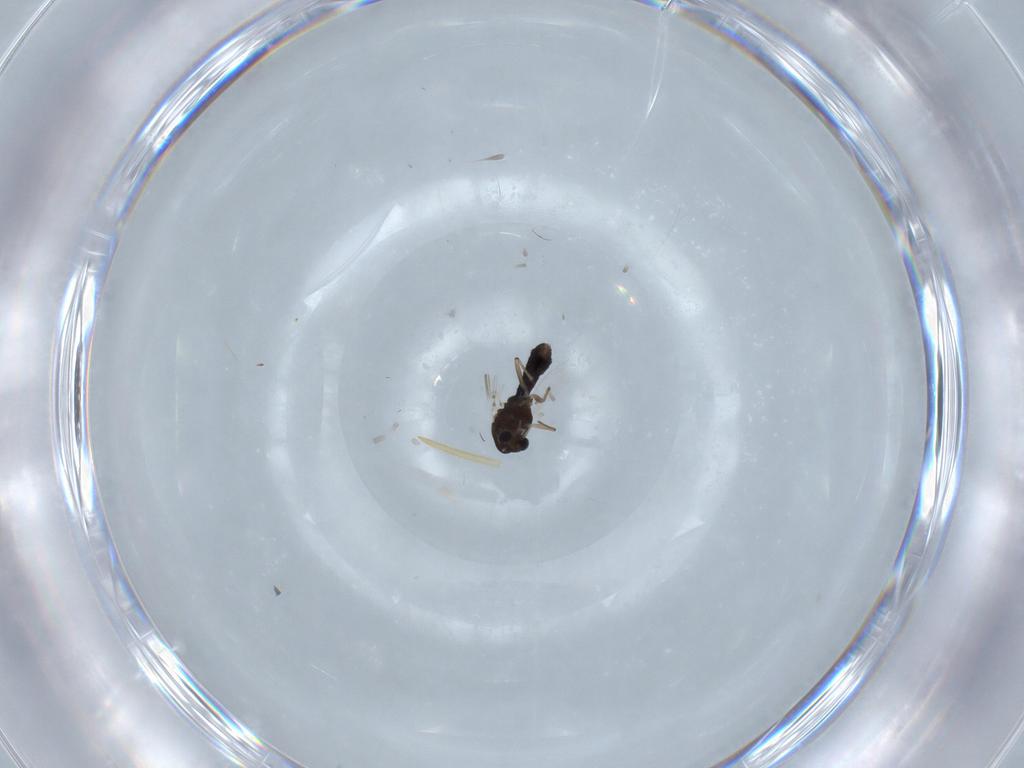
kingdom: Animalia
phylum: Arthropoda
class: Insecta
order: Diptera
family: Chironomidae
